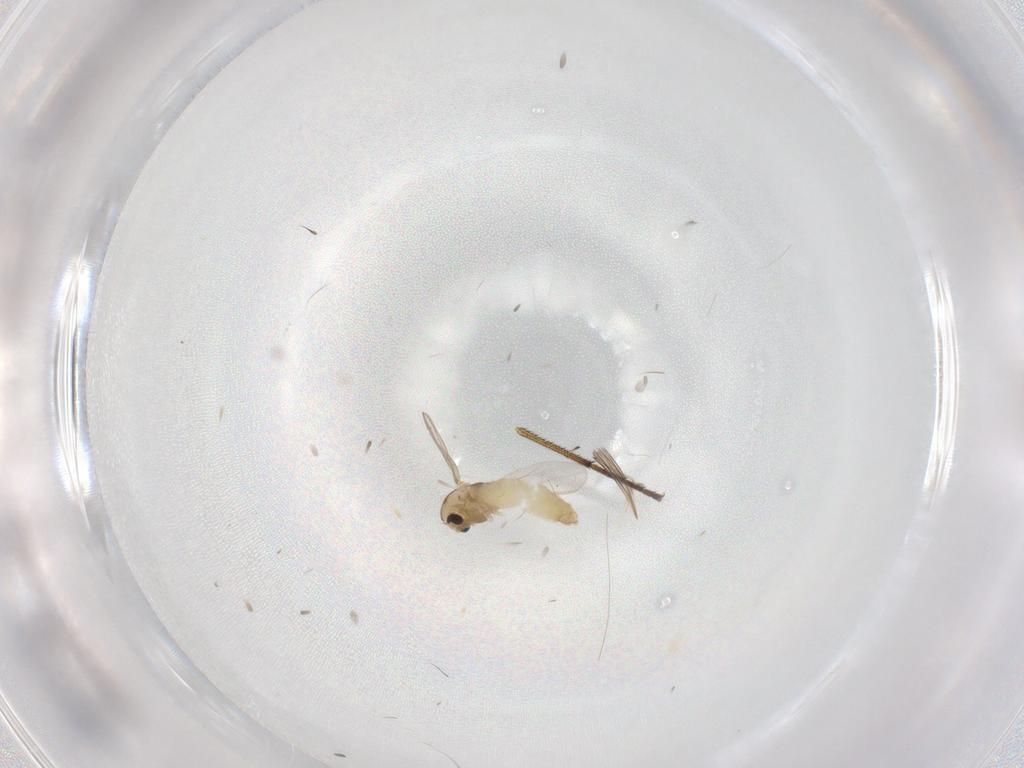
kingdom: Animalia
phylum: Arthropoda
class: Insecta
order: Diptera
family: Chironomidae
